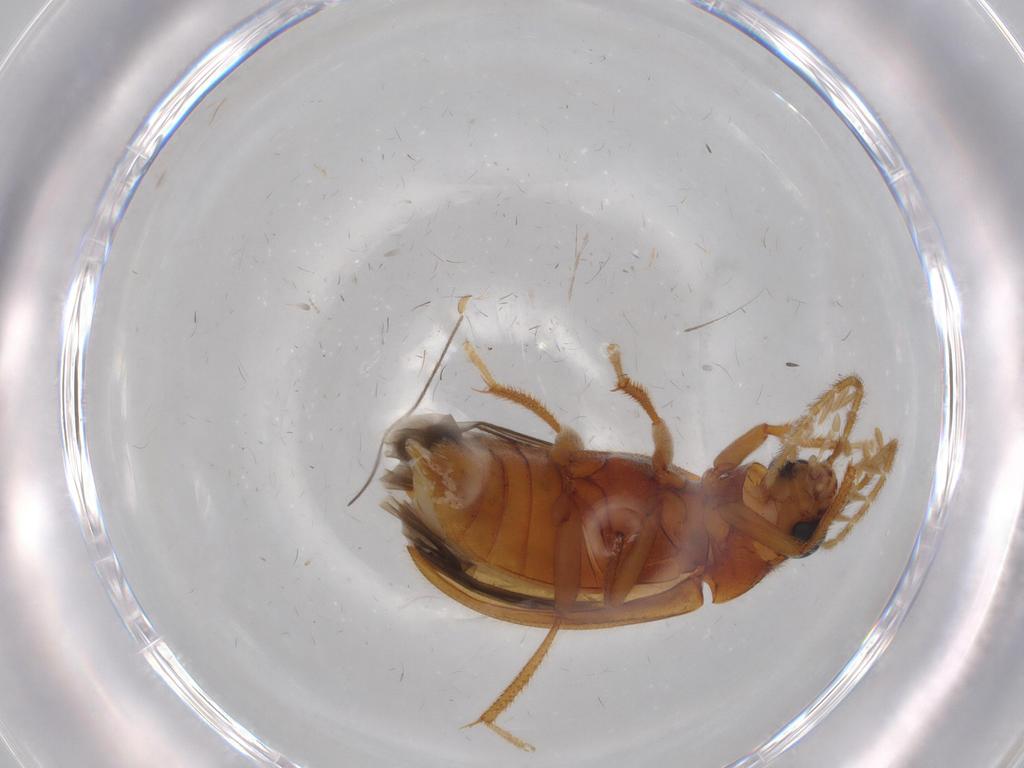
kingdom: Animalia
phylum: Arthropoda
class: Insecta
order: Coleoptera
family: Ptilodactylidae
